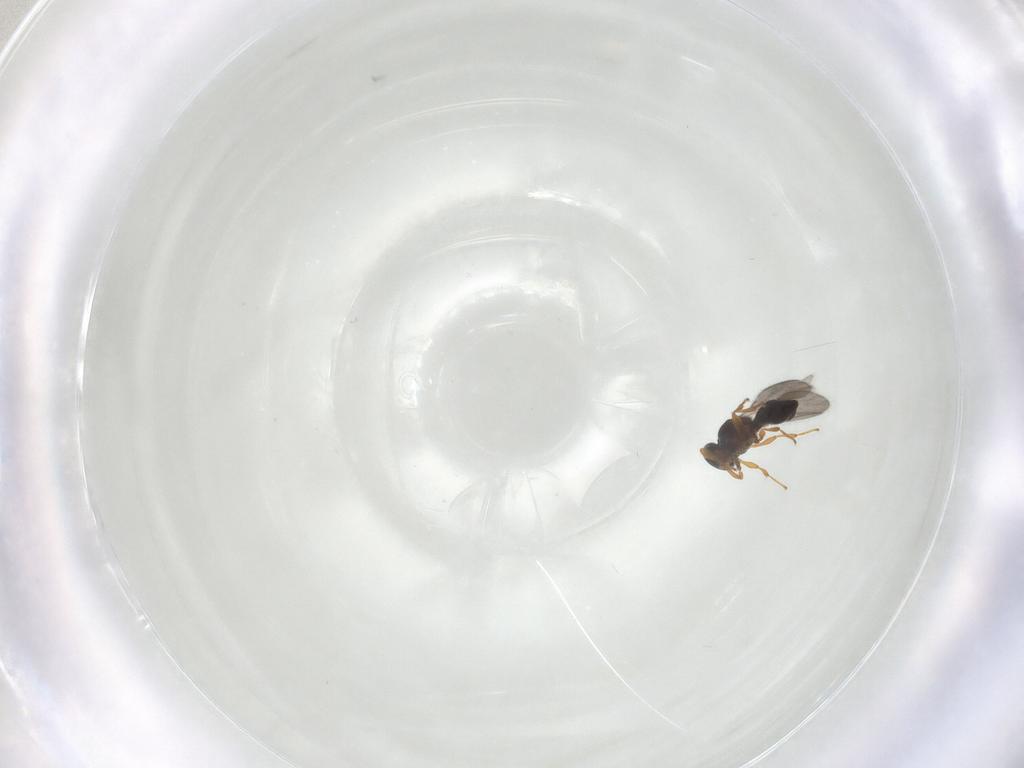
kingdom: Animalia
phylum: Arthropoda
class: Insecta
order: Hymenoptera
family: Platygastridae
